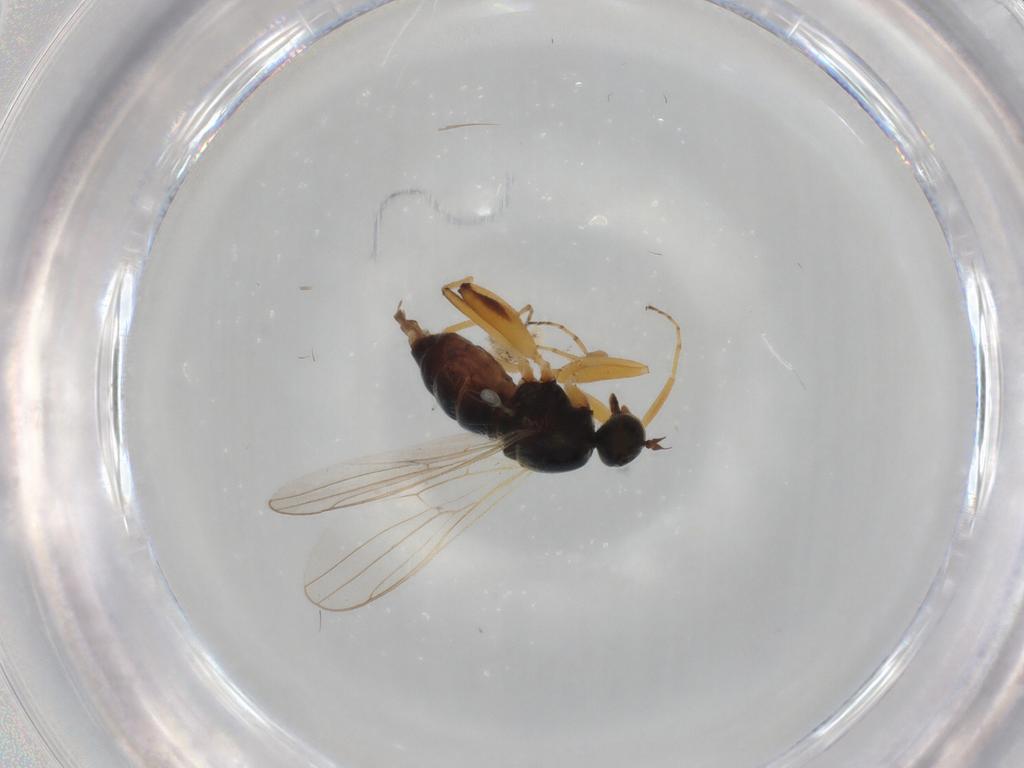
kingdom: Animalia
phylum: Arthropoda
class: Insecta
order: Diptera
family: Hybotidae
